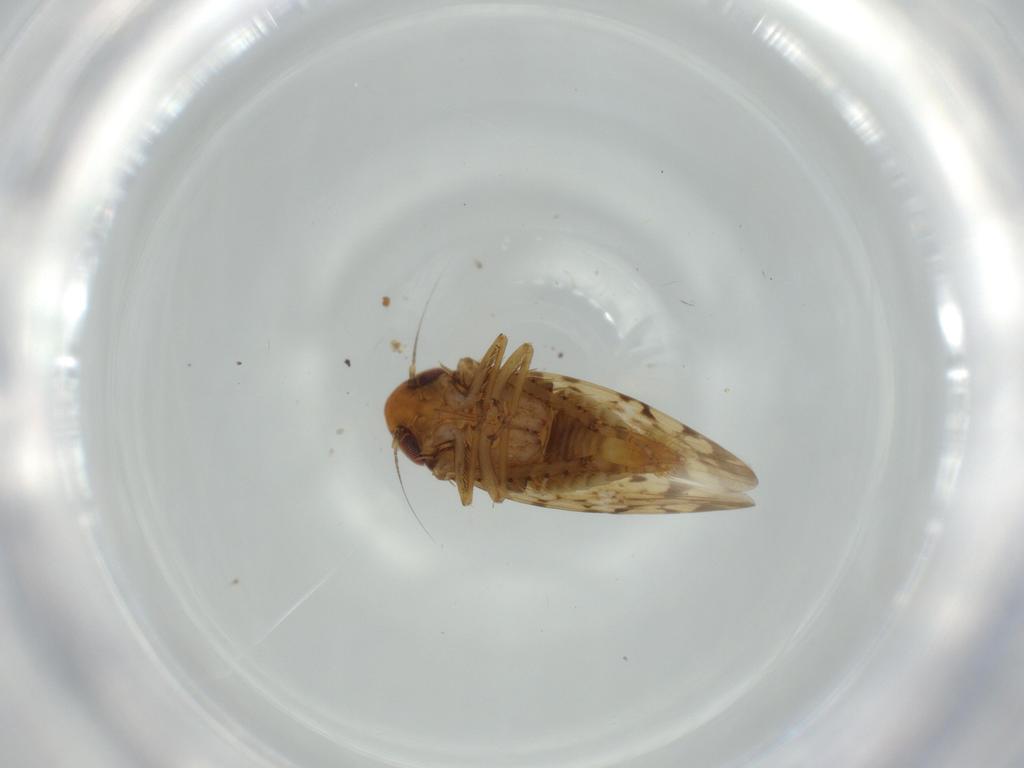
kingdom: Animalia
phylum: Arthropoda
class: Insecta
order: Hemiptera
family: Cicadellidae
